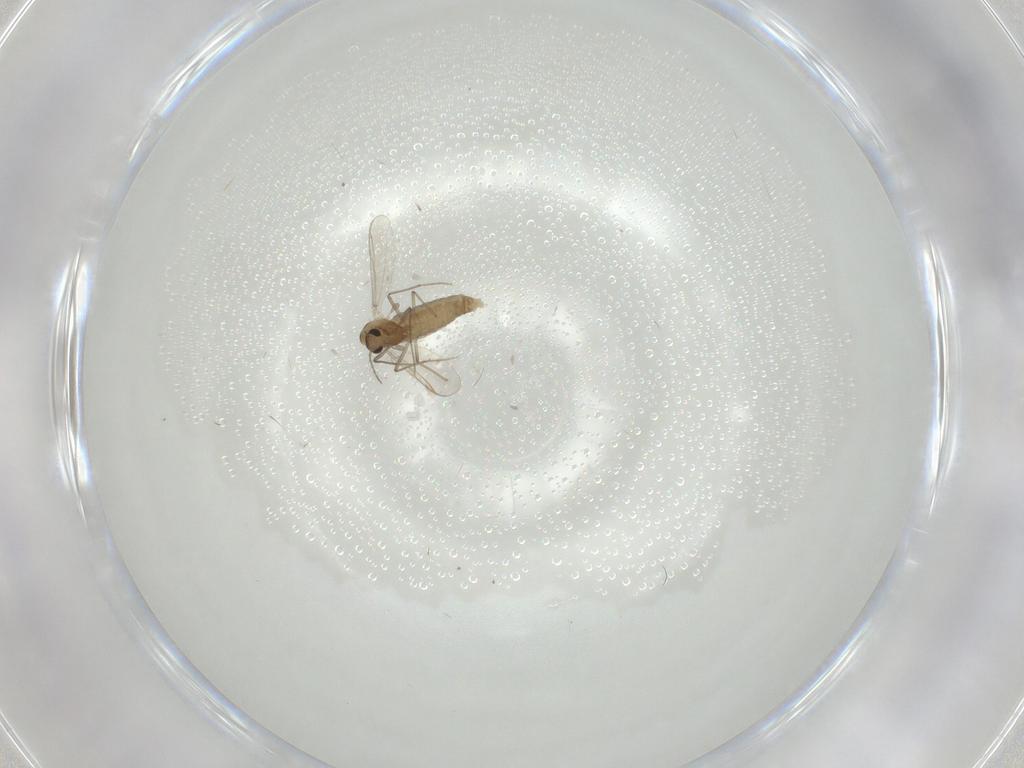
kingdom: Animalia
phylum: Arthropoda
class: Insecta
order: Diptera
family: Chironomidae
